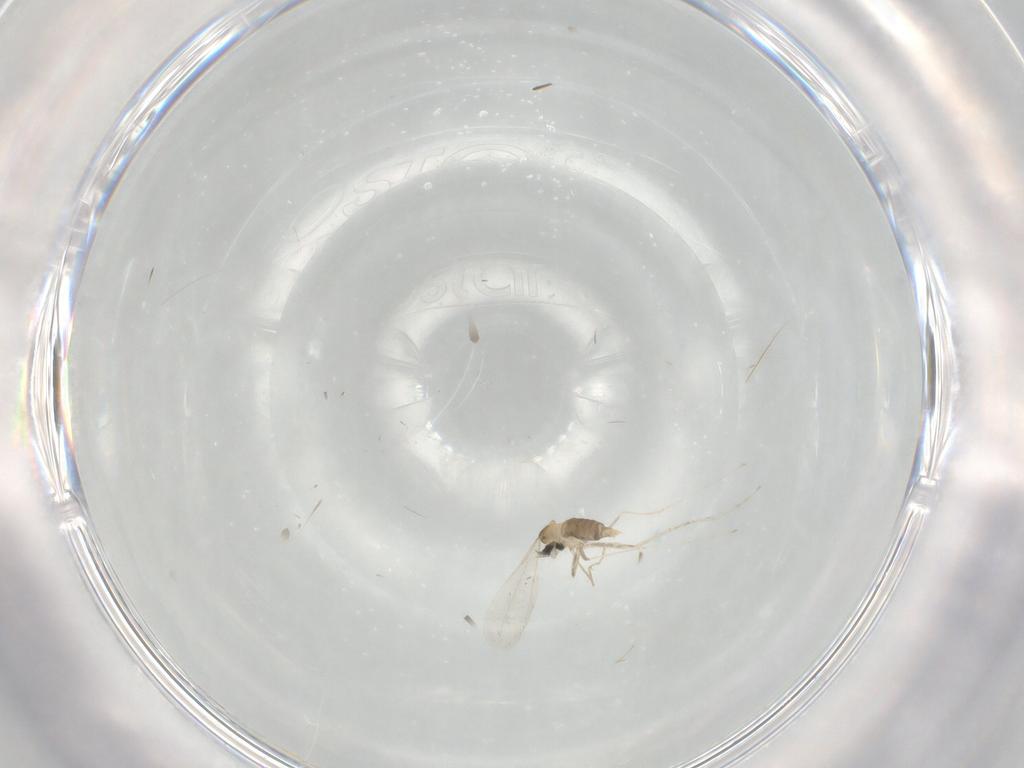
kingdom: Animalia
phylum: Arthropoda
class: Insecta
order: Diptera
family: Cecidomyiidae
